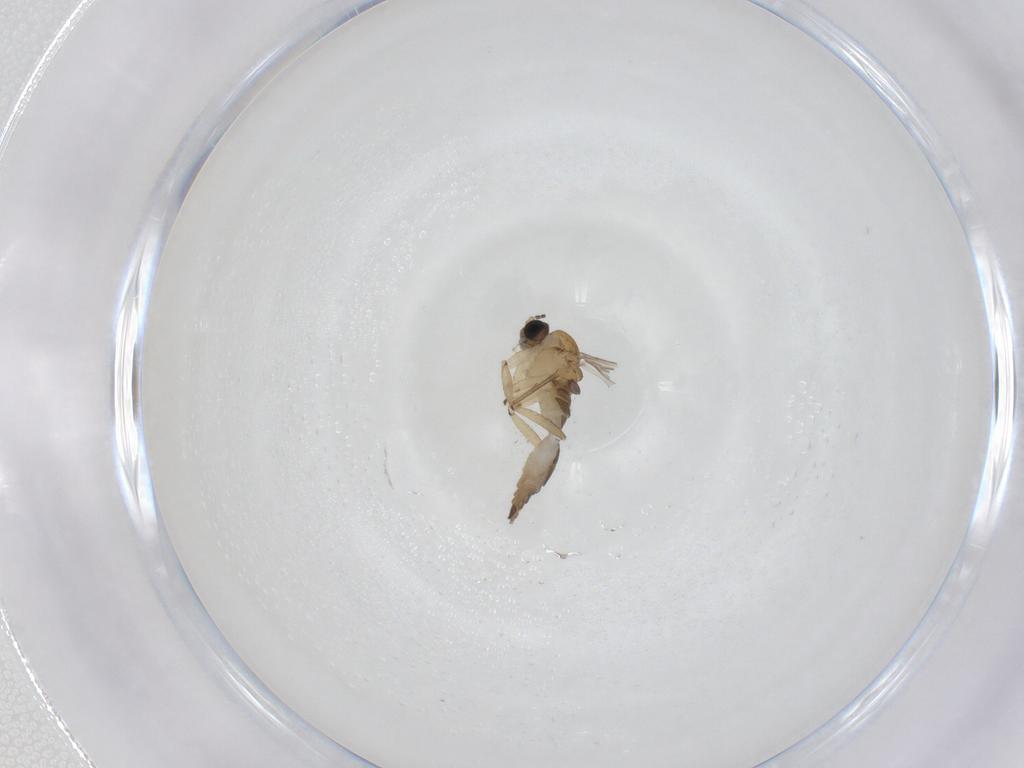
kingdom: Animalia
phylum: Arthropoda
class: Insecta
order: Diptera
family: Sciaridae
